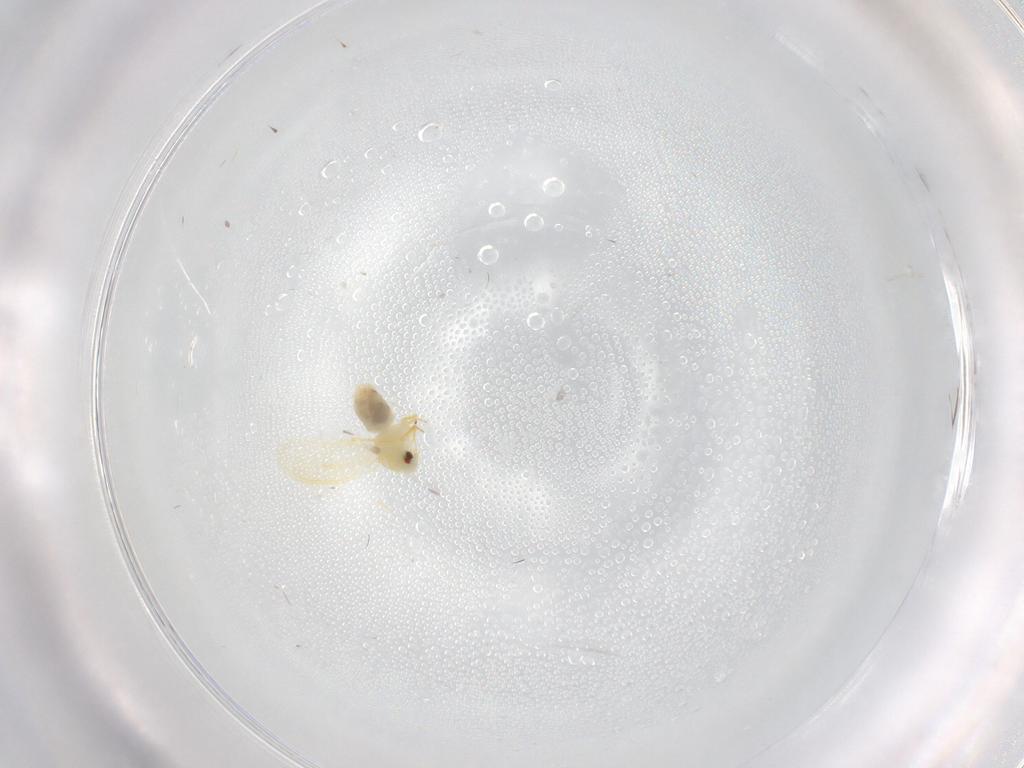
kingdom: Animalia
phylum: Arthropoda
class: Insecta
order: Hemiptera
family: Aleyrodidae
